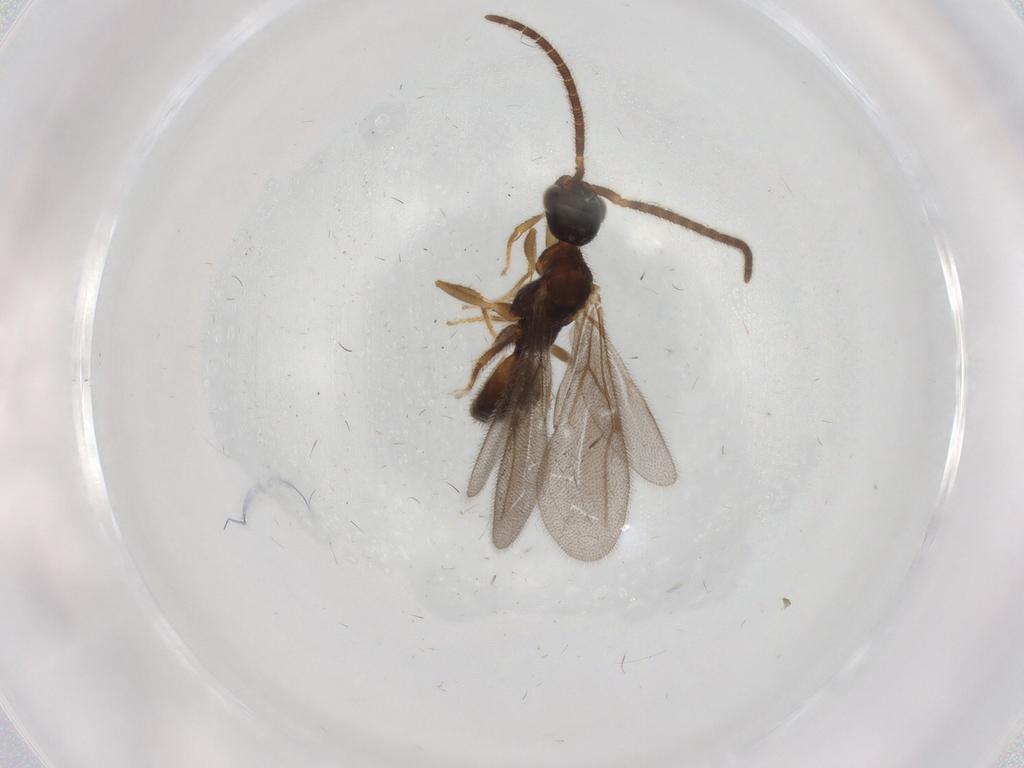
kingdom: Animalia
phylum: Arthropoda
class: Insecta
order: Hymenoptera
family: Bethylidae
